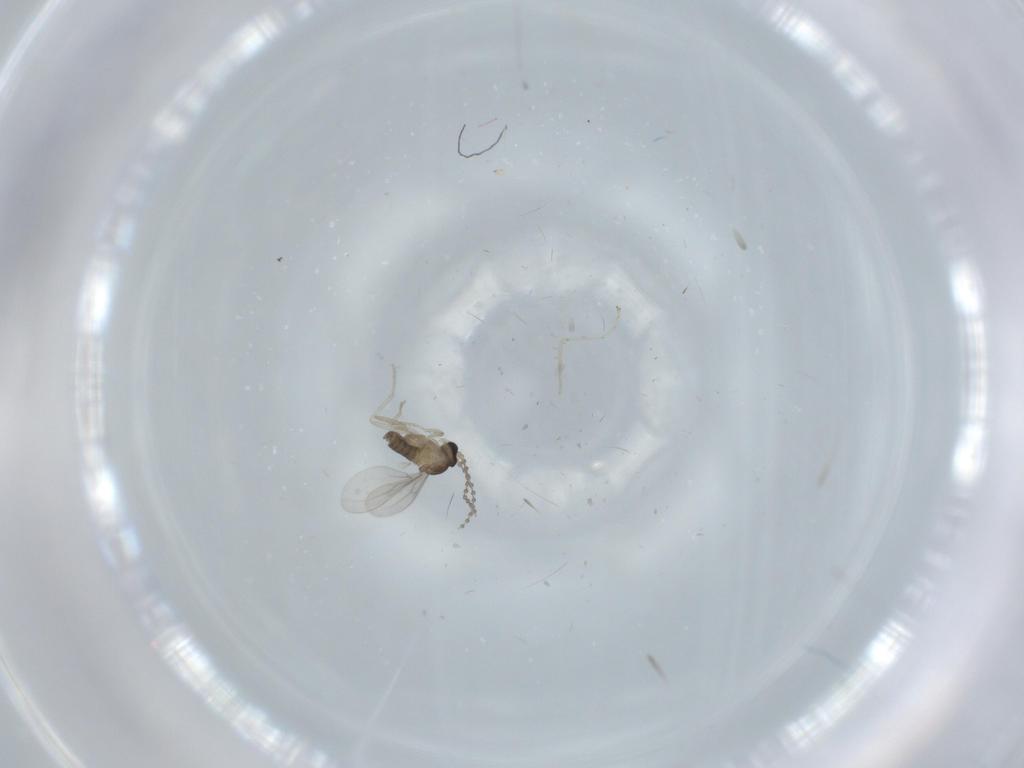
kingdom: Animalia
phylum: Arthropoda
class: Insecta
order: Diptera
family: Cecidomyiidae
